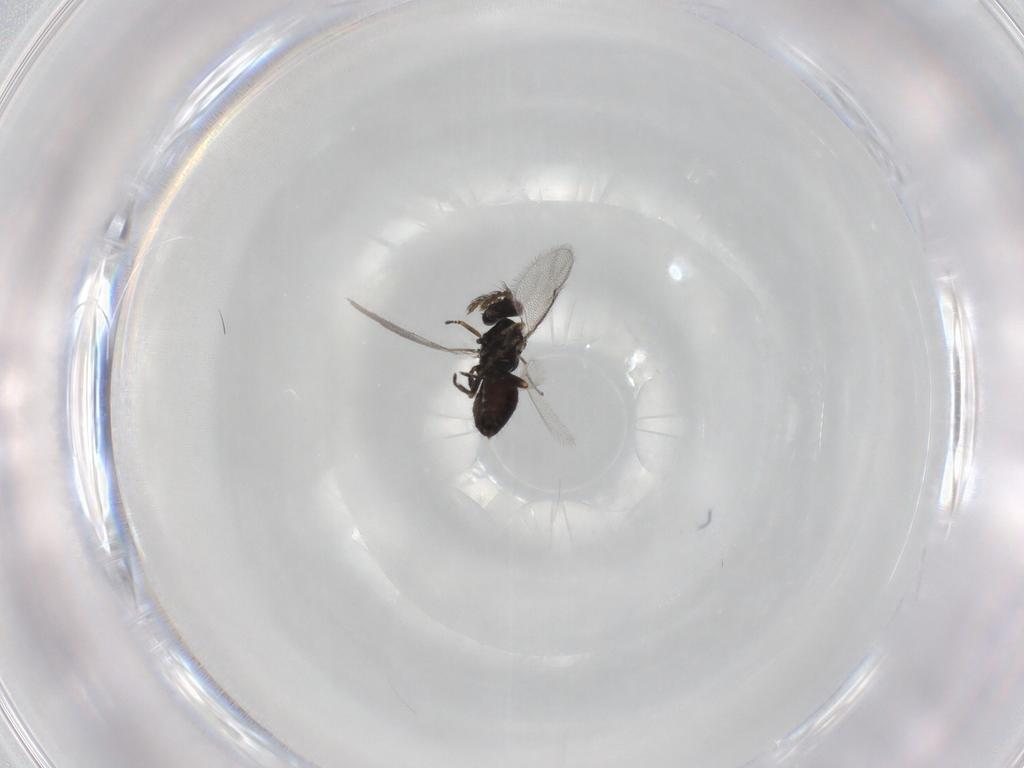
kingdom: Animalia
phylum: Arthropoda
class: Insecta
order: Hymenoptera
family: Eulophidae
